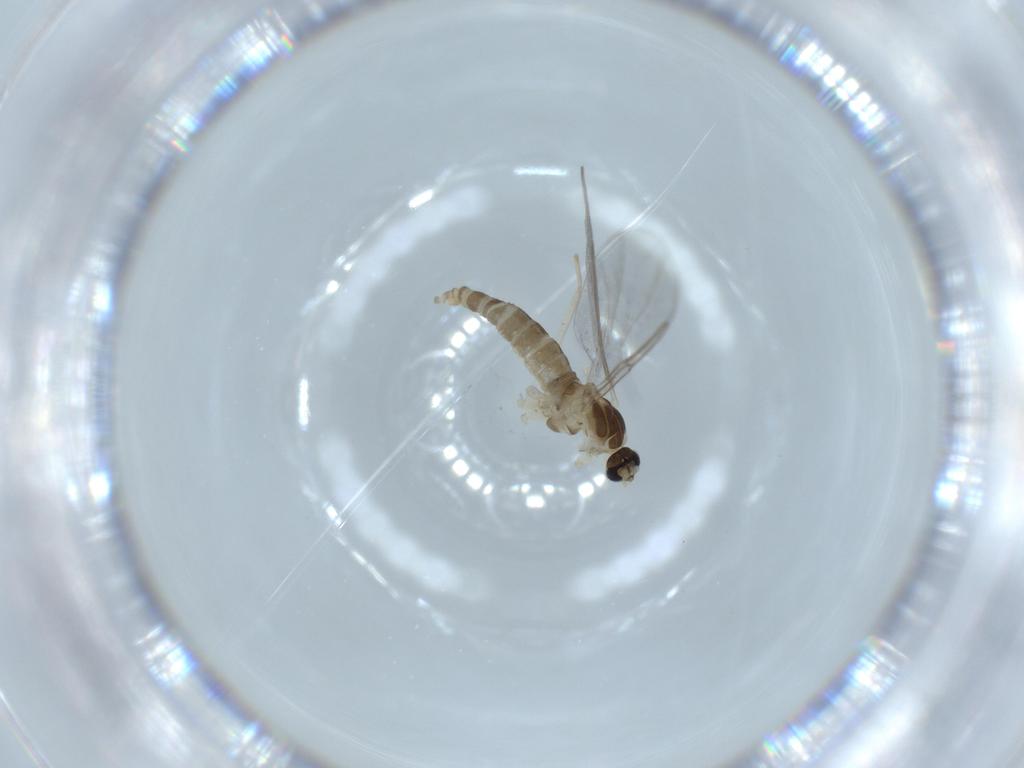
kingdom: Animalia
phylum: Arthropoda
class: Insecta
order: Diptera
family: Cecidomyiidae
